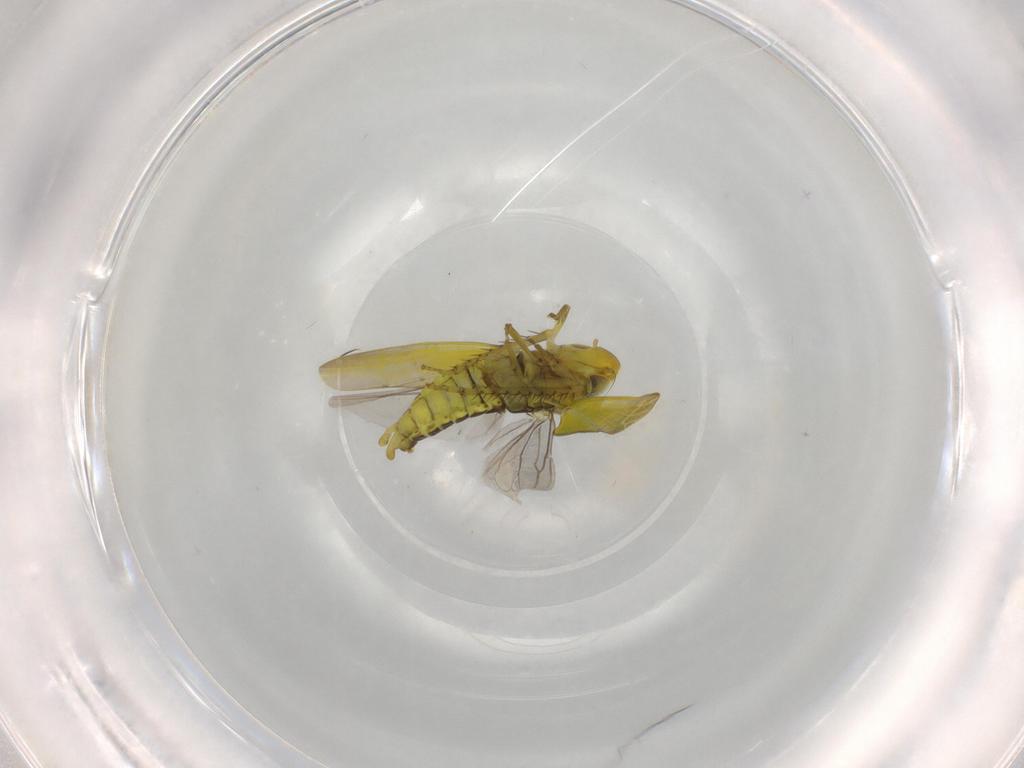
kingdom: Animalia
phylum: Arthropoda
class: Insecta
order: Hemiptera
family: Cicadellidae
